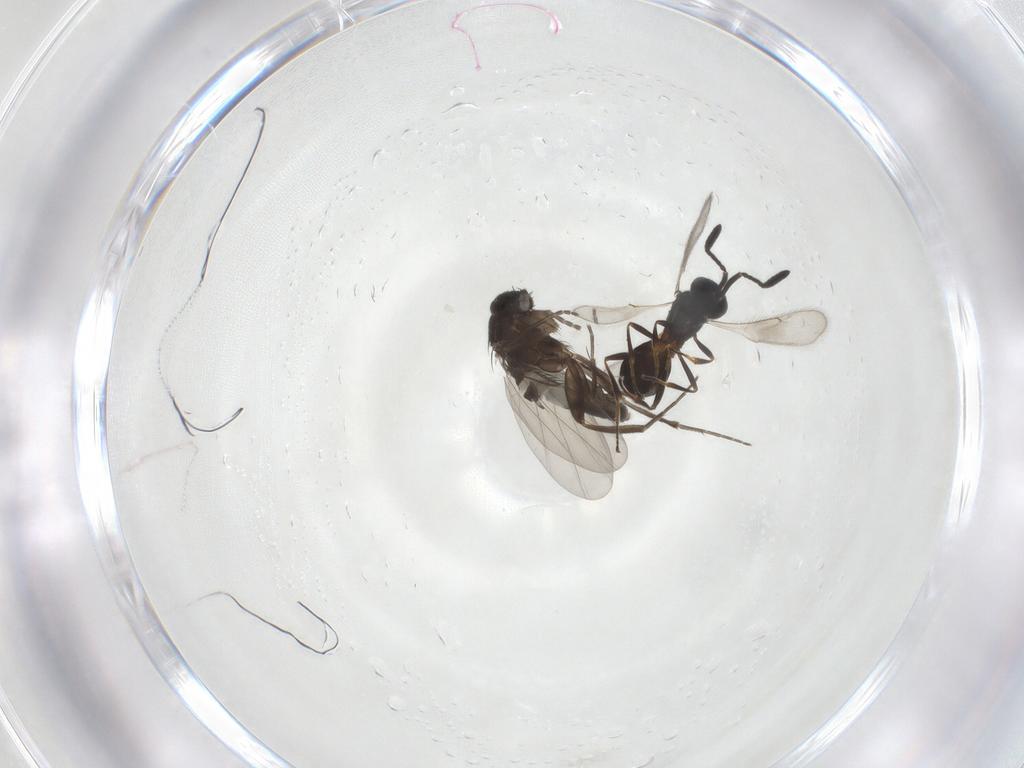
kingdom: Animalia
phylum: Arthropoda
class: Insecta
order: Diptera
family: Phoridae
